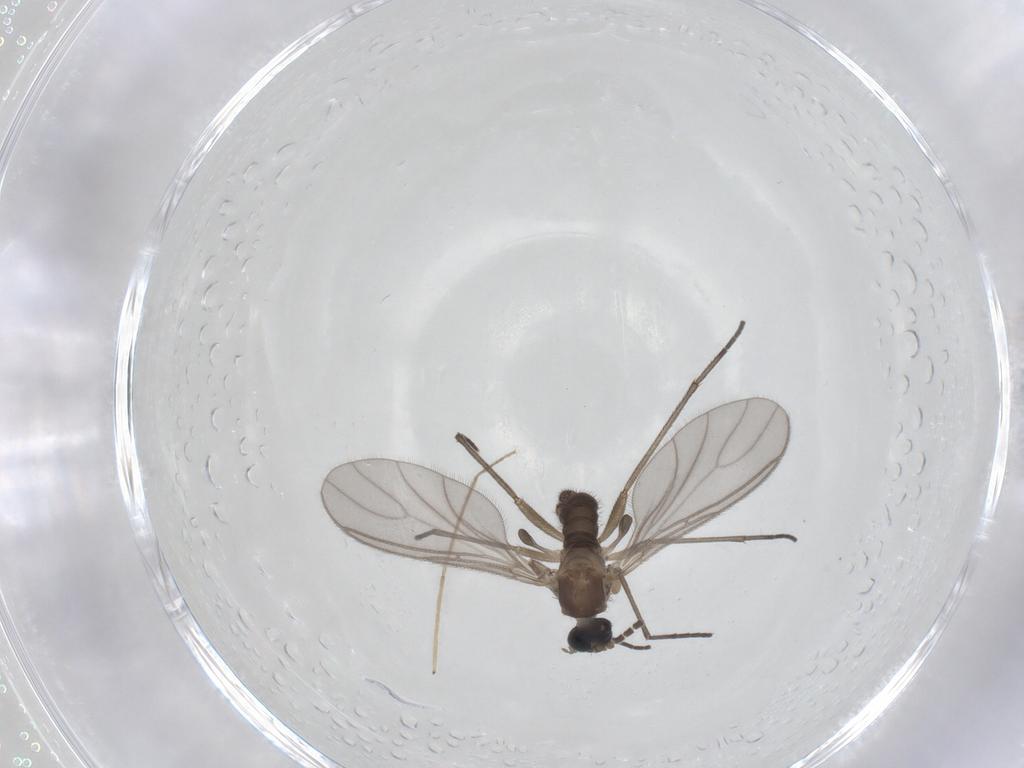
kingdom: Animalia
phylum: Arthropoda
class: Insecta
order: Diptera
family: Sciaridae
